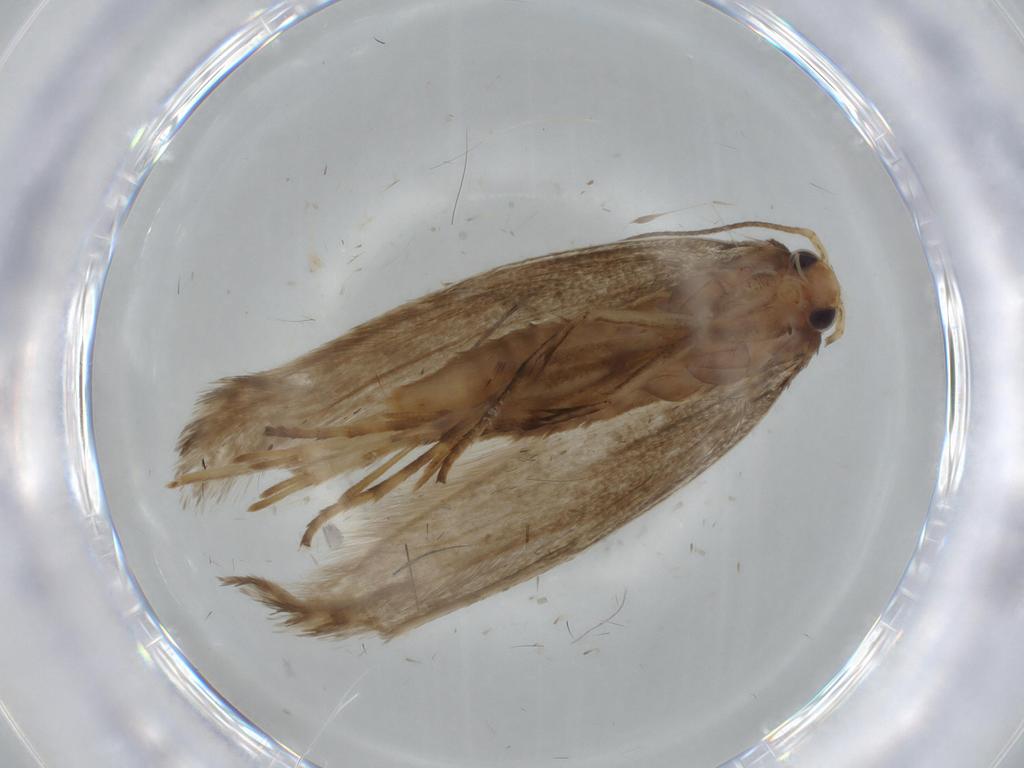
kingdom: Animalia
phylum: Arthropoda
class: Insecta
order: Lepidoptera
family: Argyresthiidae
